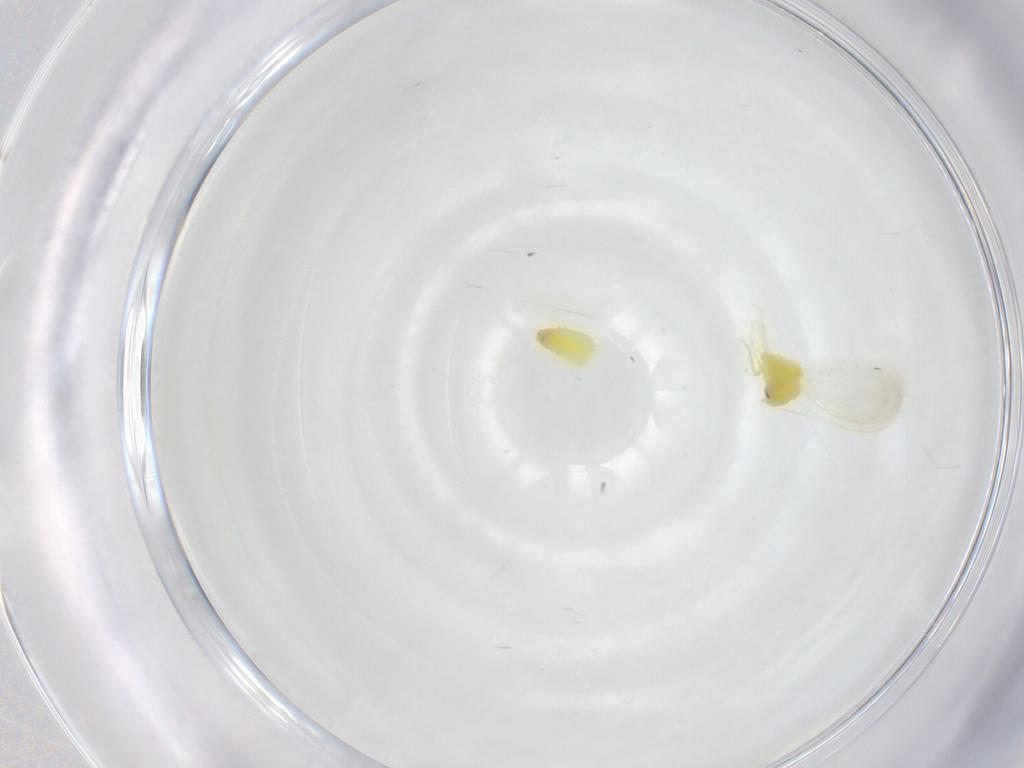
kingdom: Animalia
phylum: Arthropoda
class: Insecta
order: Hemiptera
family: Aleyrodidae
